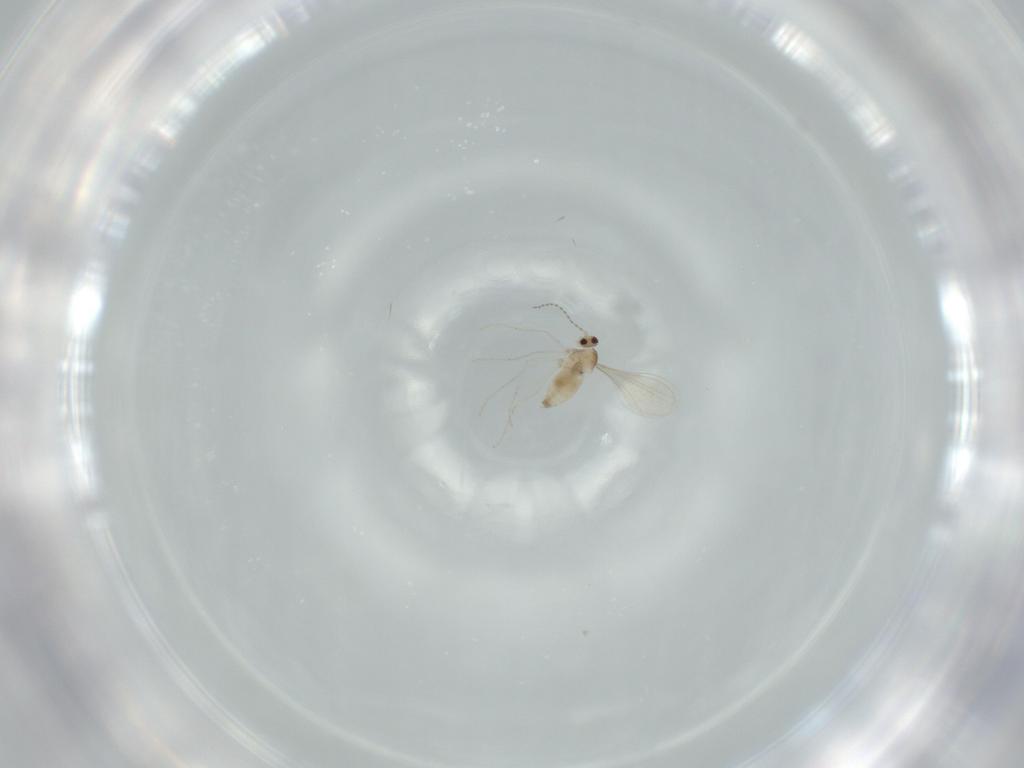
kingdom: Animalia
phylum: Arthropoda
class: Insecta
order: Diptera
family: Cecidomyiidae
